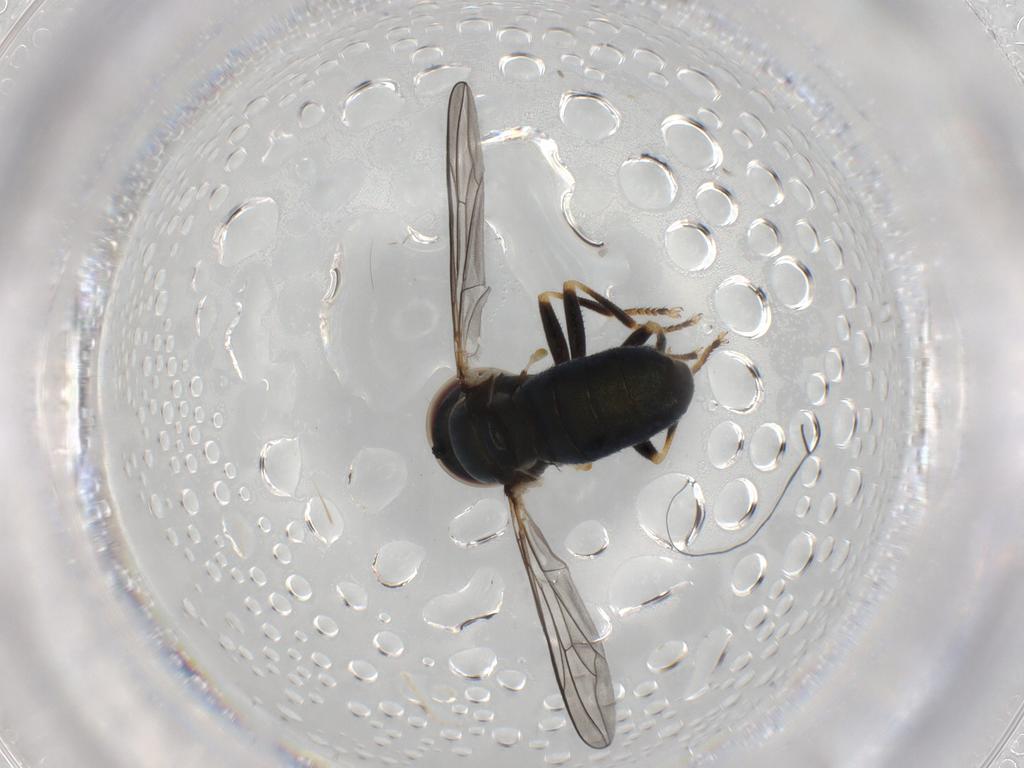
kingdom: Animalia
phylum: Arthropoda
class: Insecta
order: Diptera
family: Pipunculidae
